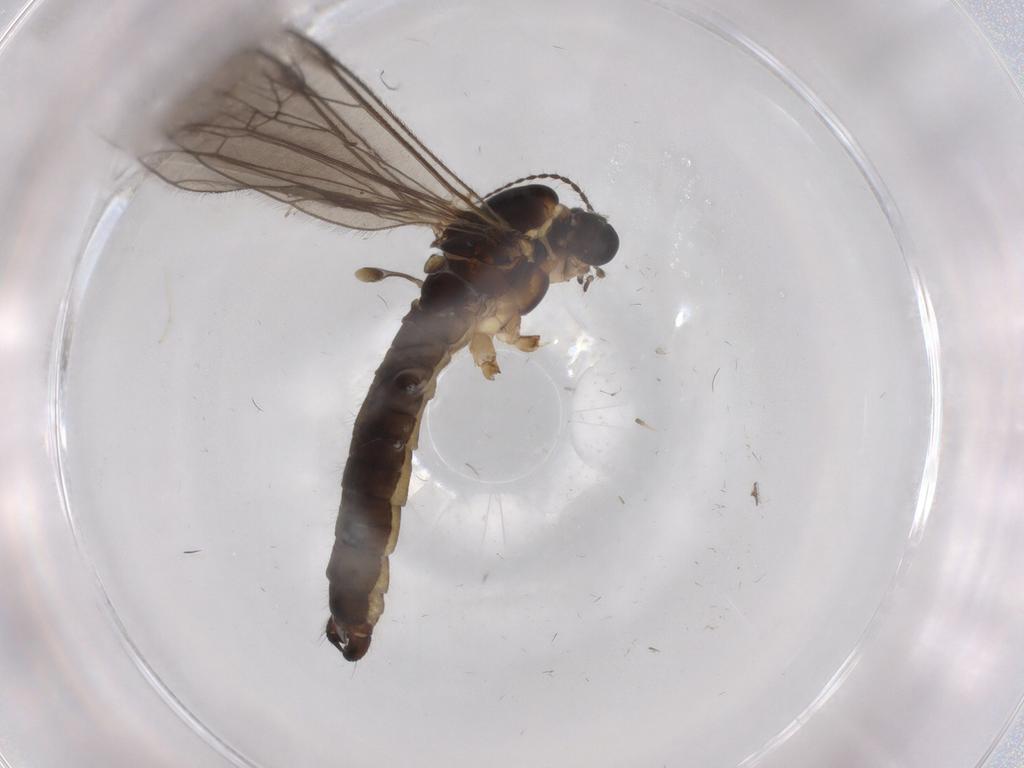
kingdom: Animalia
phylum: Arthropoda
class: Insecta
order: Diptera
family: Limoniidae
